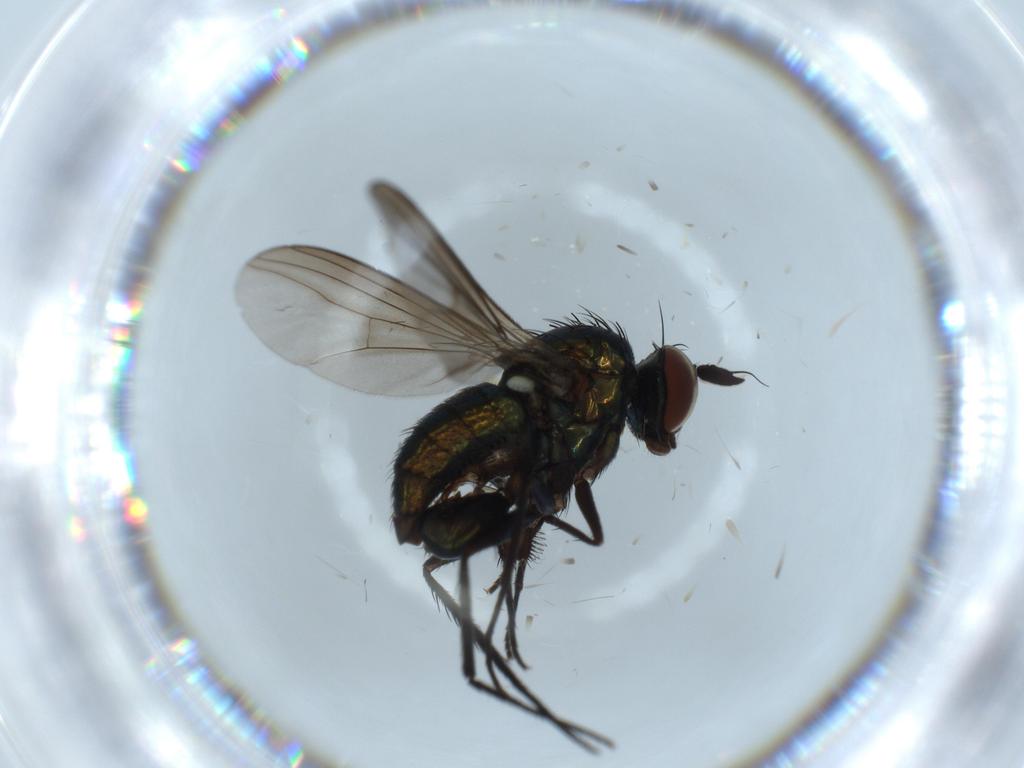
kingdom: Animalia
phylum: Arthropoda
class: Insecta
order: Diptera
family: Dolichopodidae
